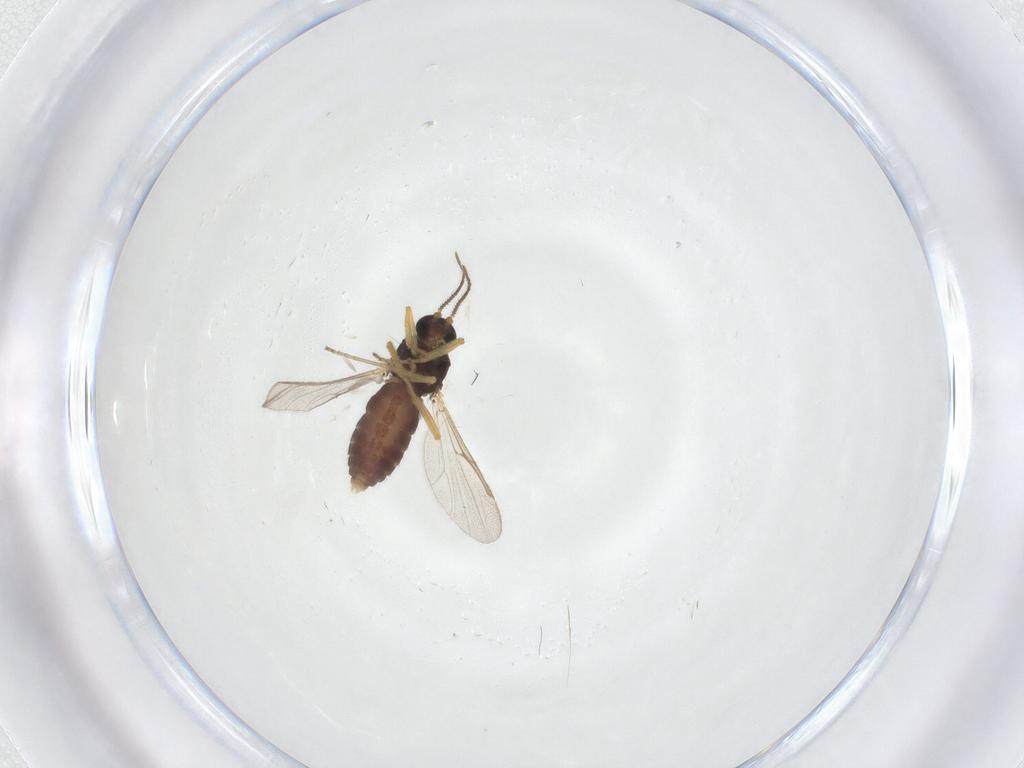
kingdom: Animalia
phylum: Arthropoda
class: Insecta
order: Diptera
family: Ceratopogonidae
